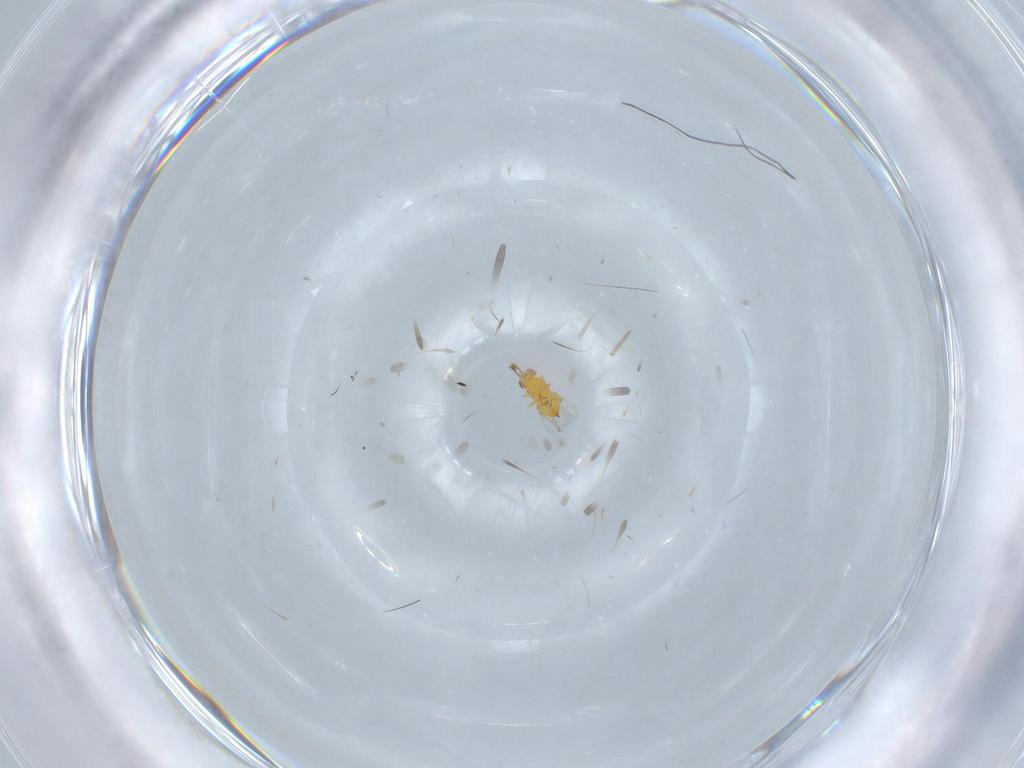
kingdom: Animalia
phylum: Arthropoda
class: Insecta
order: Hymenoptera
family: Trichogrammatidae
